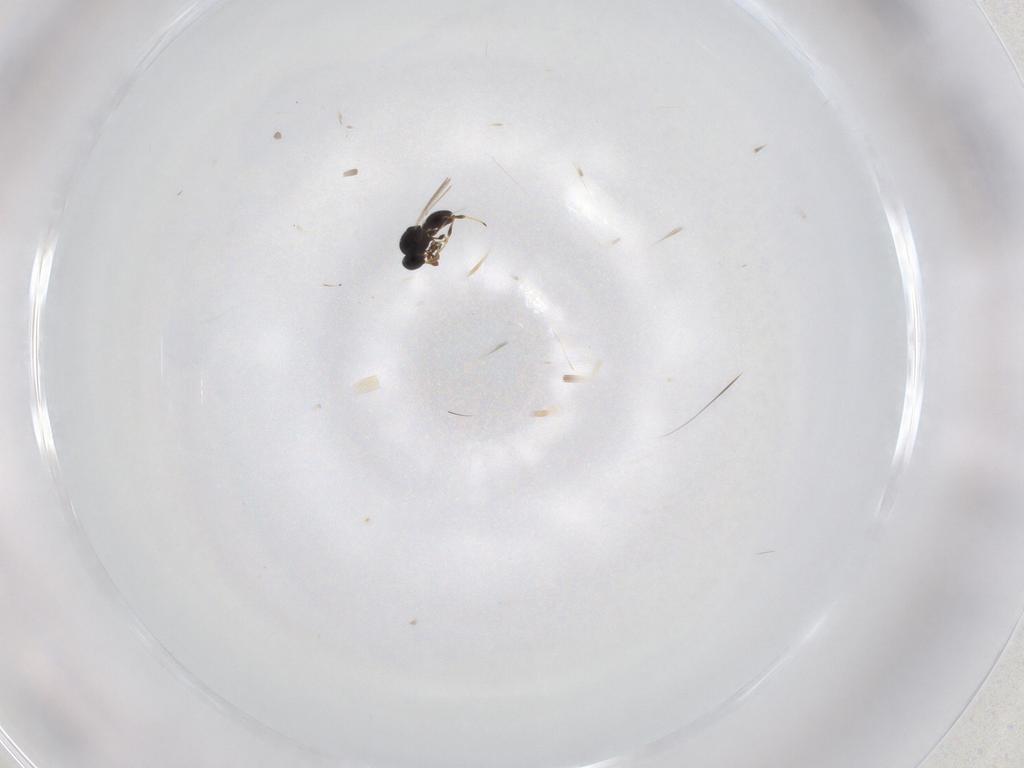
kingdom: Animalia
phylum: Arthropoda
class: Insecta
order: Hymenoptera
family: Platygastridae
